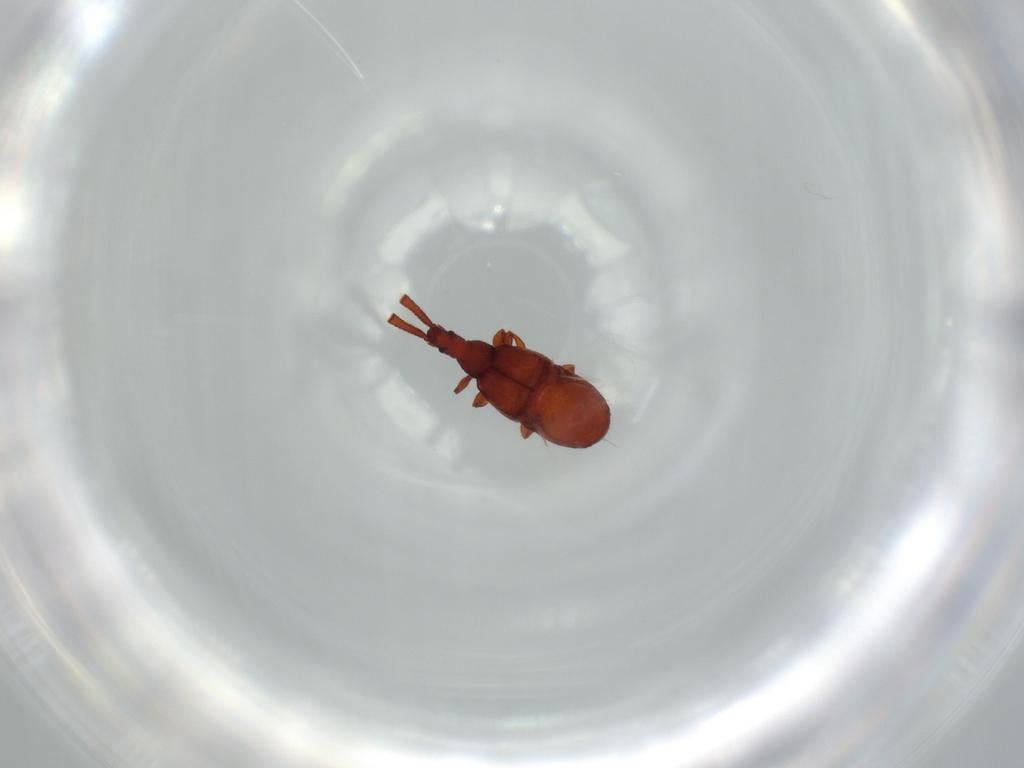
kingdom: Animalia
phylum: Arthropoda
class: Insecta
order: Coleoptera
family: Staphylinidae
